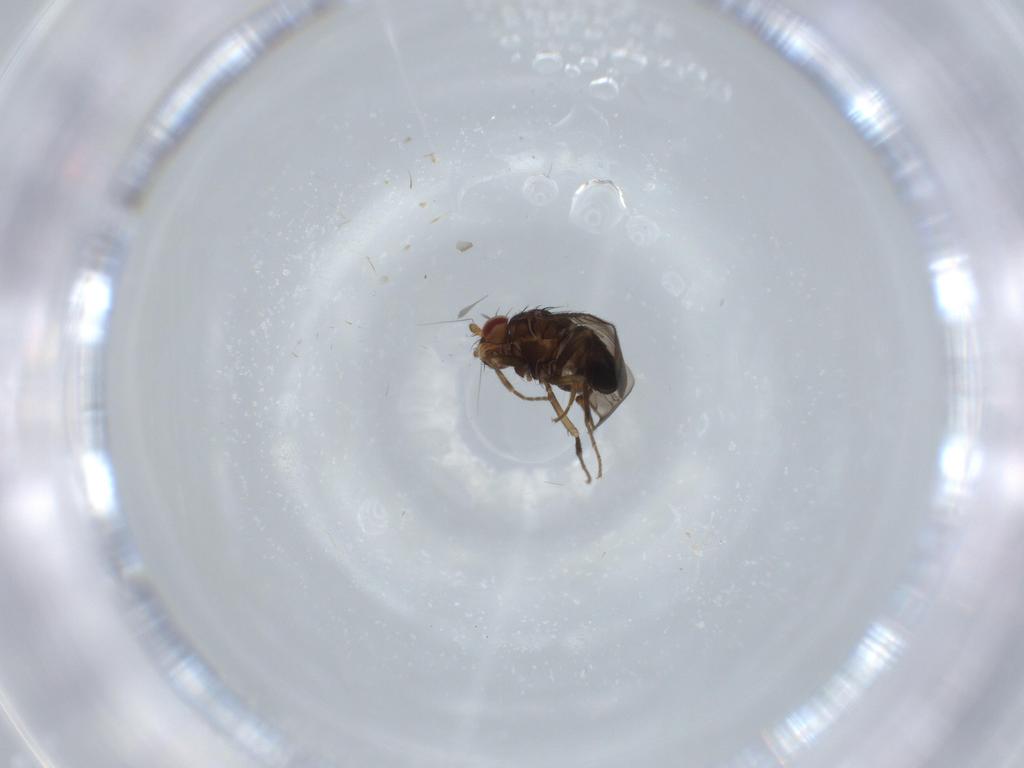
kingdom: Animalia
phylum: Arthropoda
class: Insecta
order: Diptera
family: Sphaeroceridae
